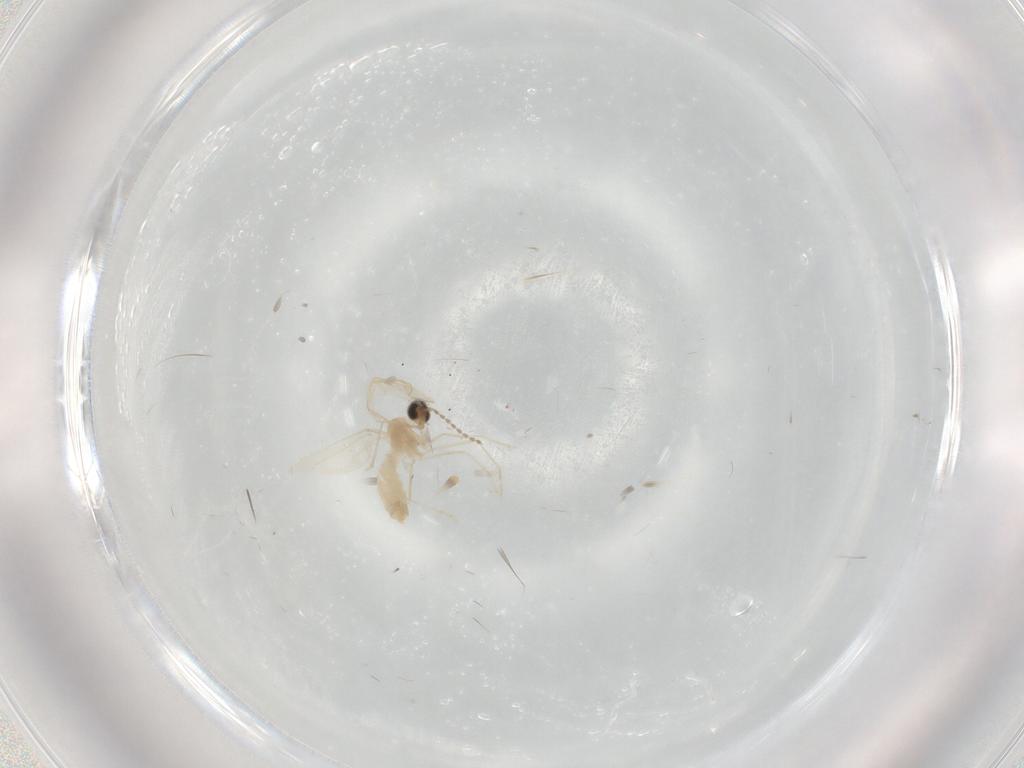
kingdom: Animalia
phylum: Arthropoda
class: Insecta
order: Diptera
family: Cecidomyiidae
